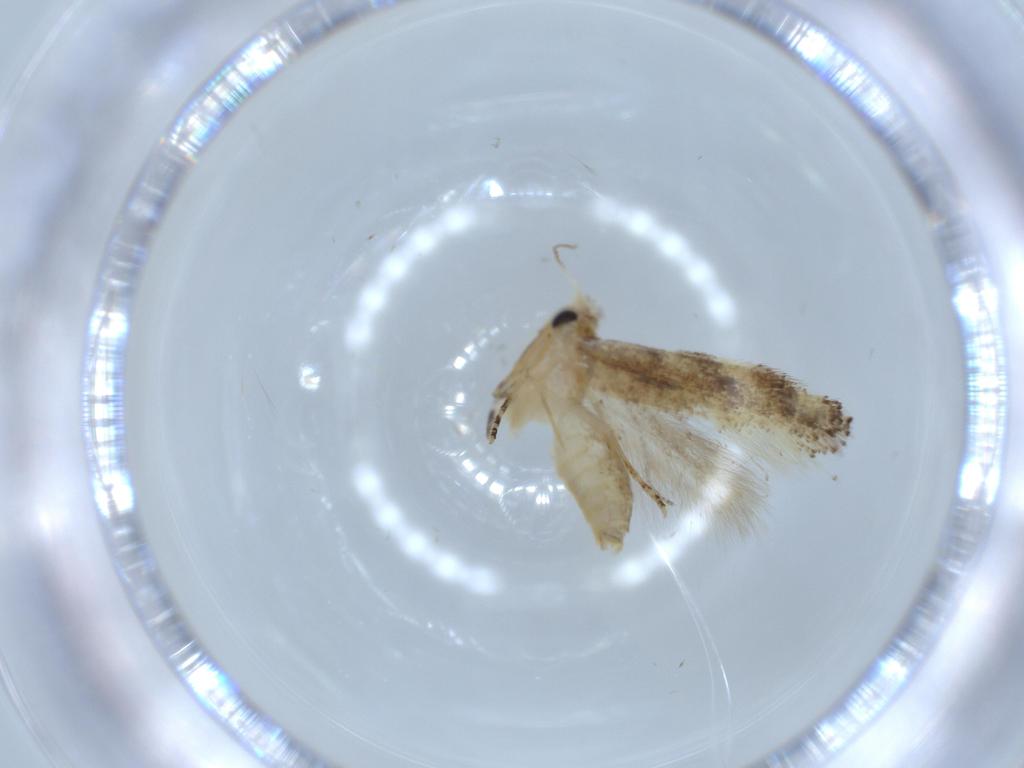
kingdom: Animalia
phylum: Arthropoda
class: Insecta
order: Lepidoptera
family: Bucculatricidae
